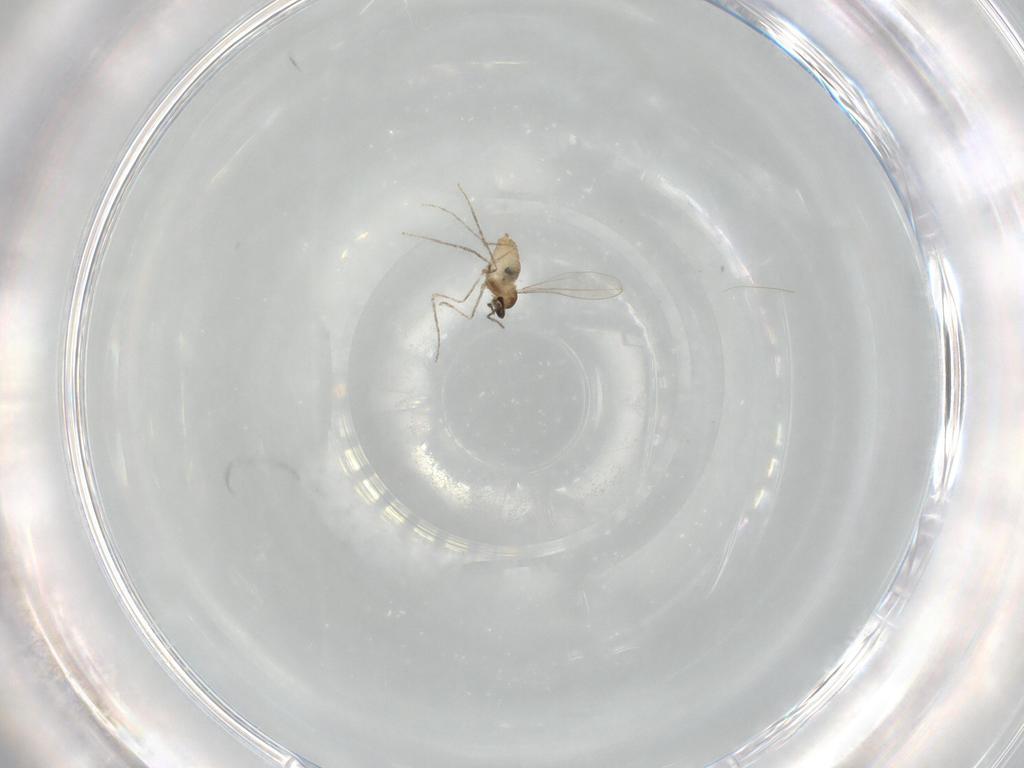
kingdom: Animalia
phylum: Arthropoda
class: Insecta
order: Diptera
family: Cecidomyiidae
